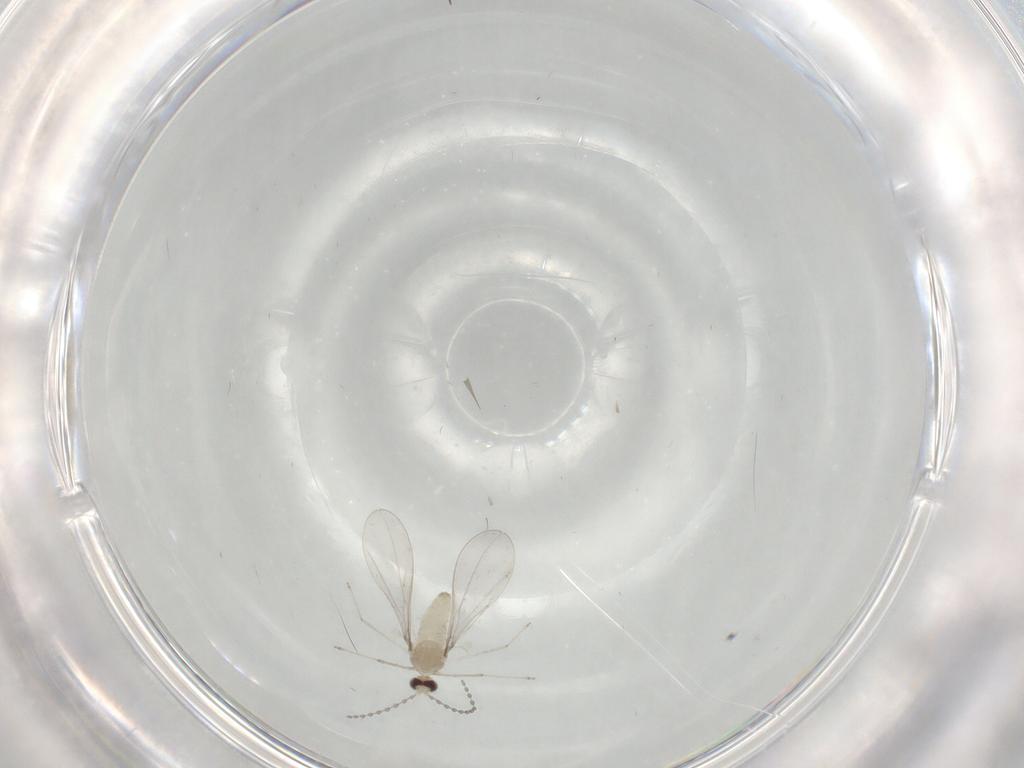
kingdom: Animalia
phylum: Arthropoda
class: Insecta
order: Diptera
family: Cecidomyiidae
